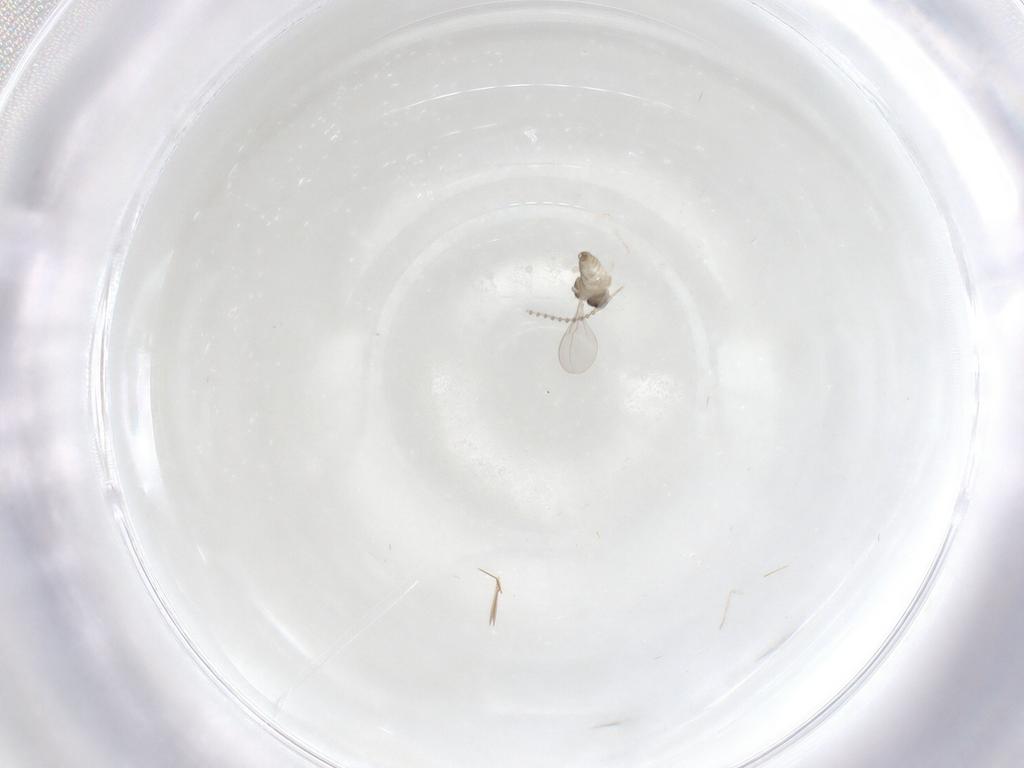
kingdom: Animalia
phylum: Arthropoda
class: Insecta
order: Diptera
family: Cecidomyiidae
